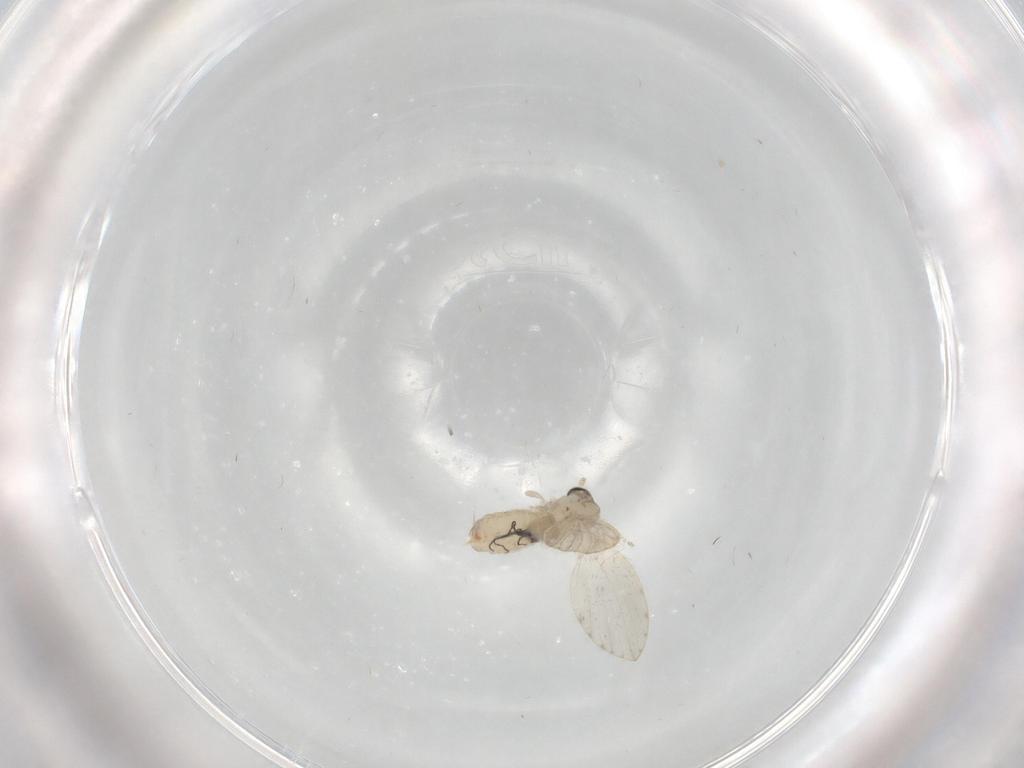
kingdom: Animalia
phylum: Arthropoda
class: Insecta
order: Diptera
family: Psychodidae
